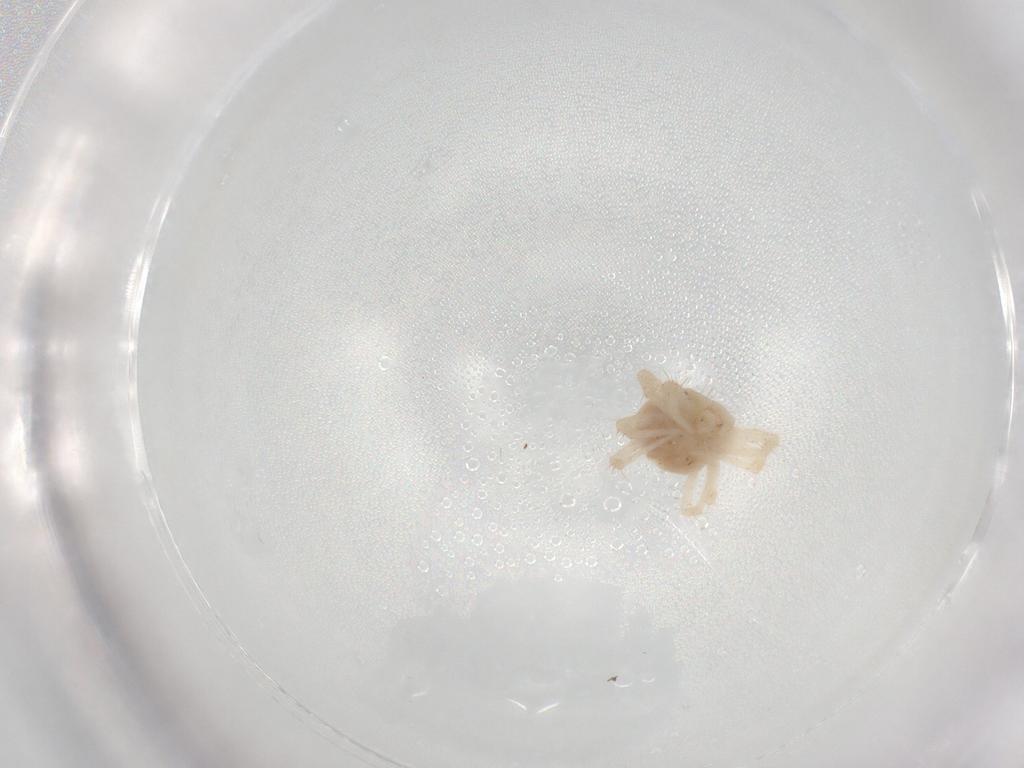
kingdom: Animalia
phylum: Arthropoda
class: Arachnida
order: Trombidiformes
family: Anystidae
